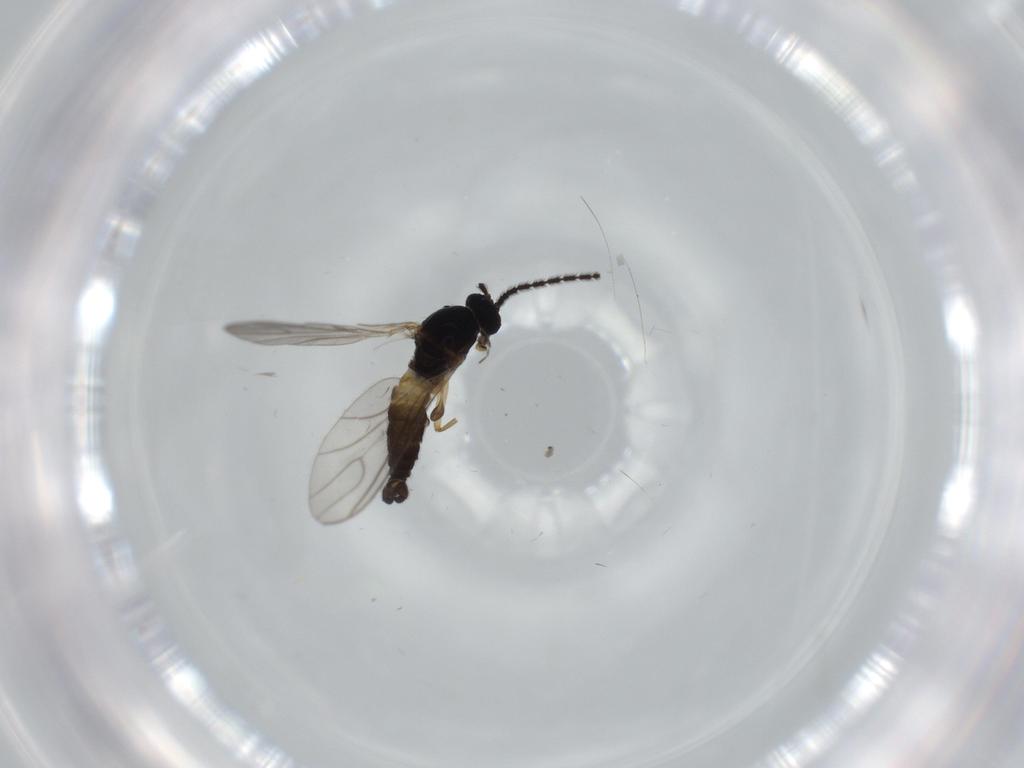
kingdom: Animalia
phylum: Arthropoda
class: Insecta
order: Diptera
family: Sciaridae
